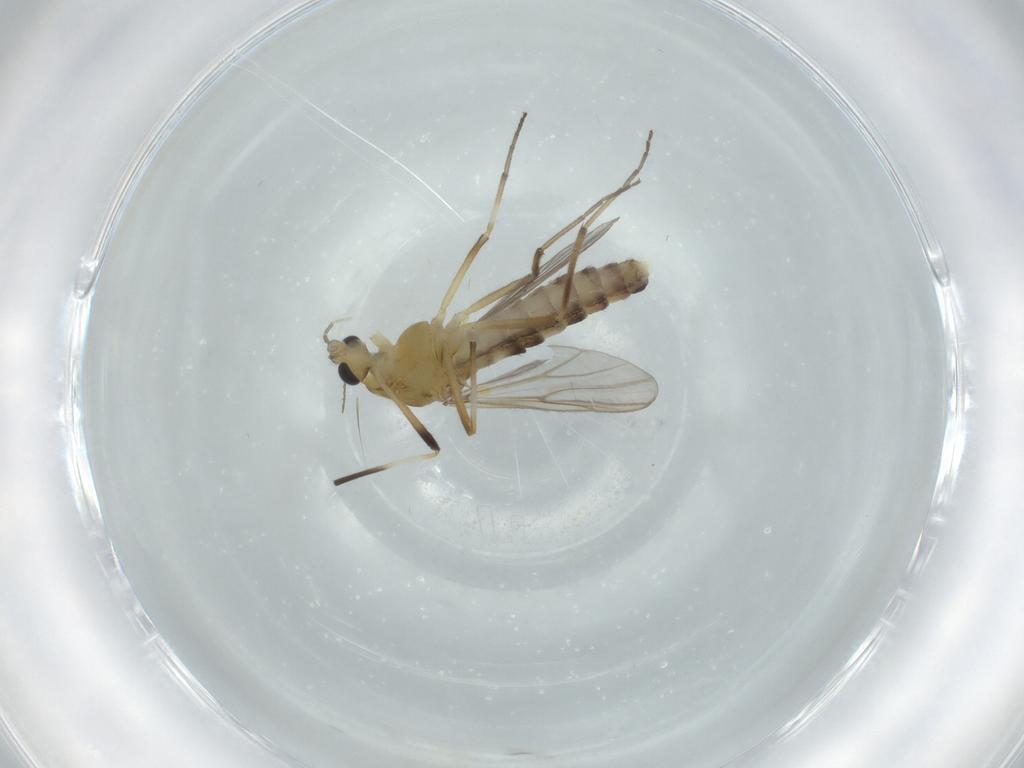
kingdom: Animalia
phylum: Arthropoda
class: Insecta
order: Diptera
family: Chironomidae
